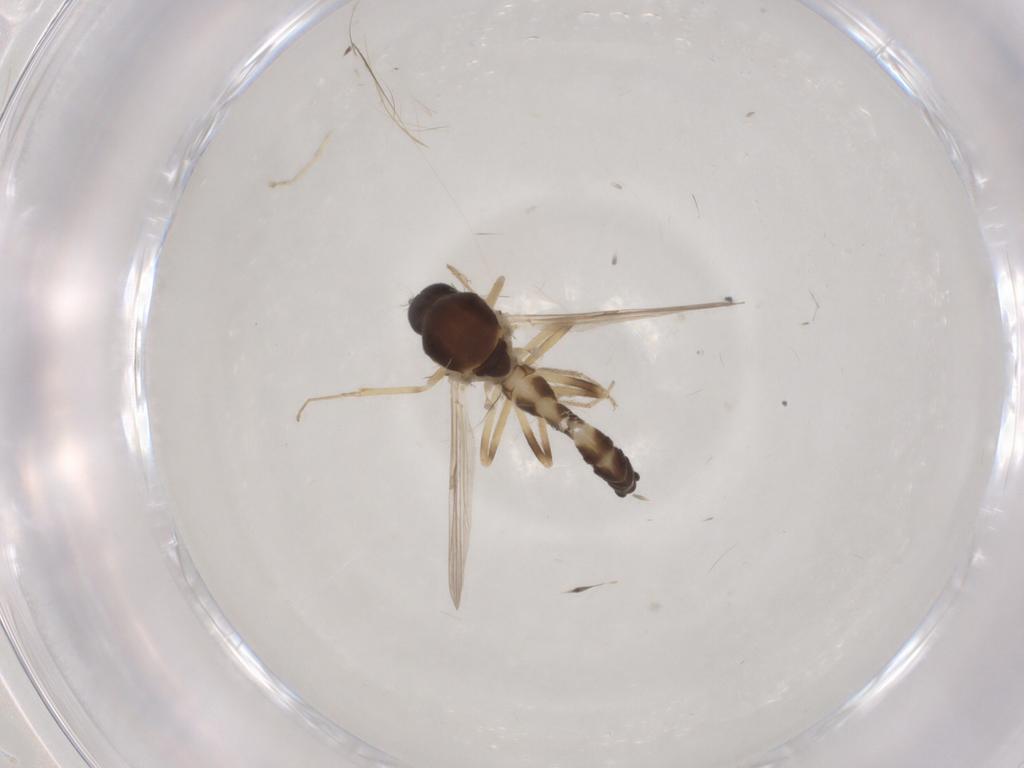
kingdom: Animalia
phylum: Arthropoda
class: Insecta
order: Diptera
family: Ceratopogonidae
